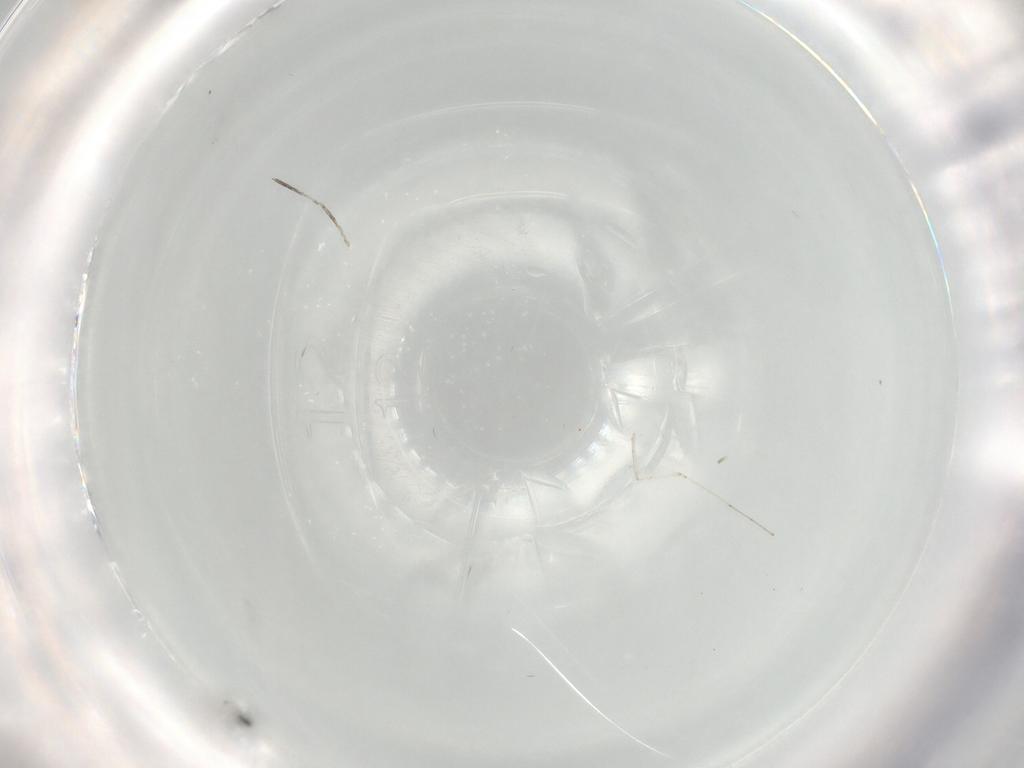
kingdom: Animalia
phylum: Arthropoda
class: Insecta
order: Diptera
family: Cecidomyiidae
